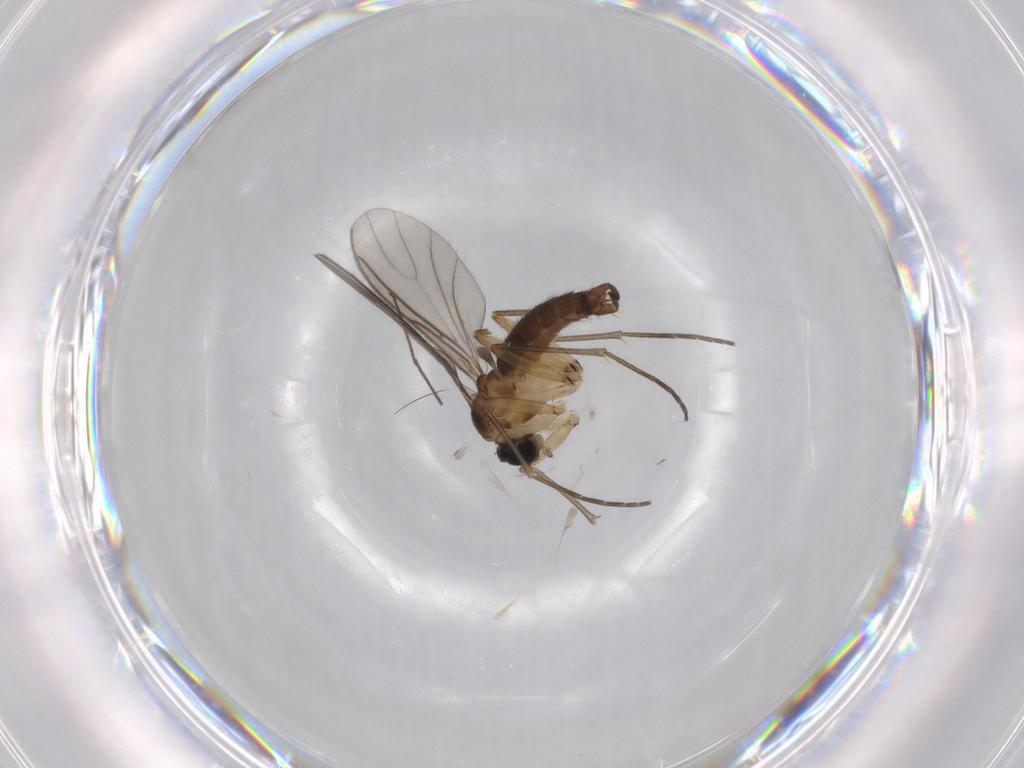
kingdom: Animalia
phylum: Arthropoda
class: Insecta
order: Diptera
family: Sciaridae
